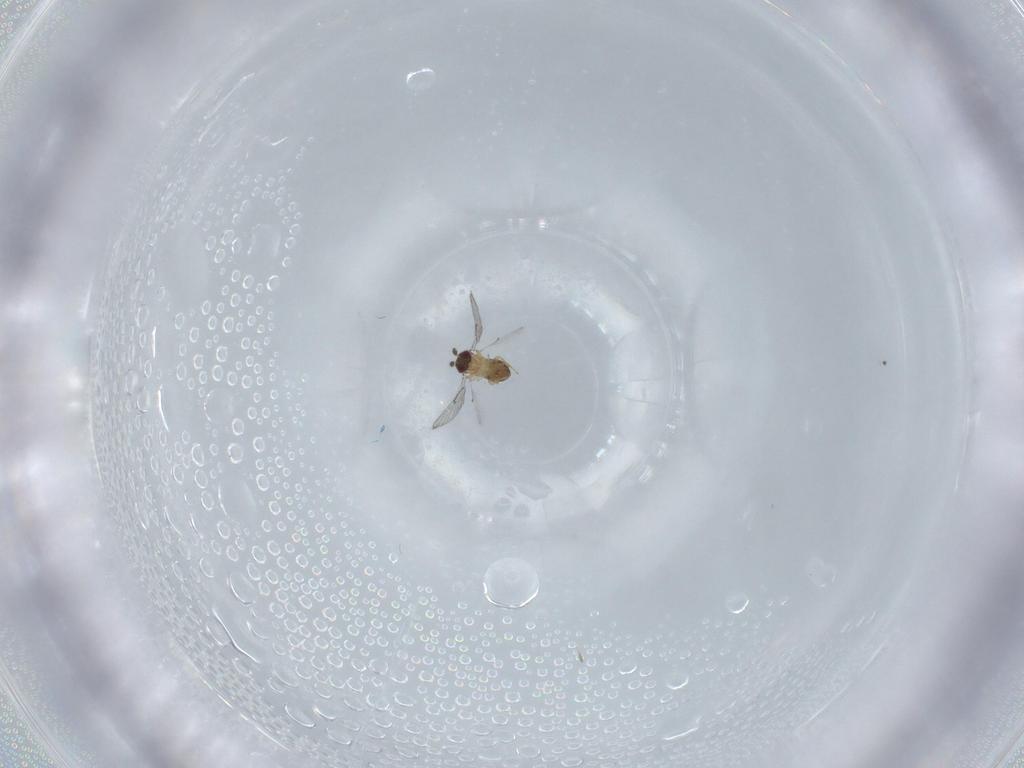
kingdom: Animalia
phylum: Arthropoda
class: Insecta
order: Hymenoptera
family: Trichogrammatidae
